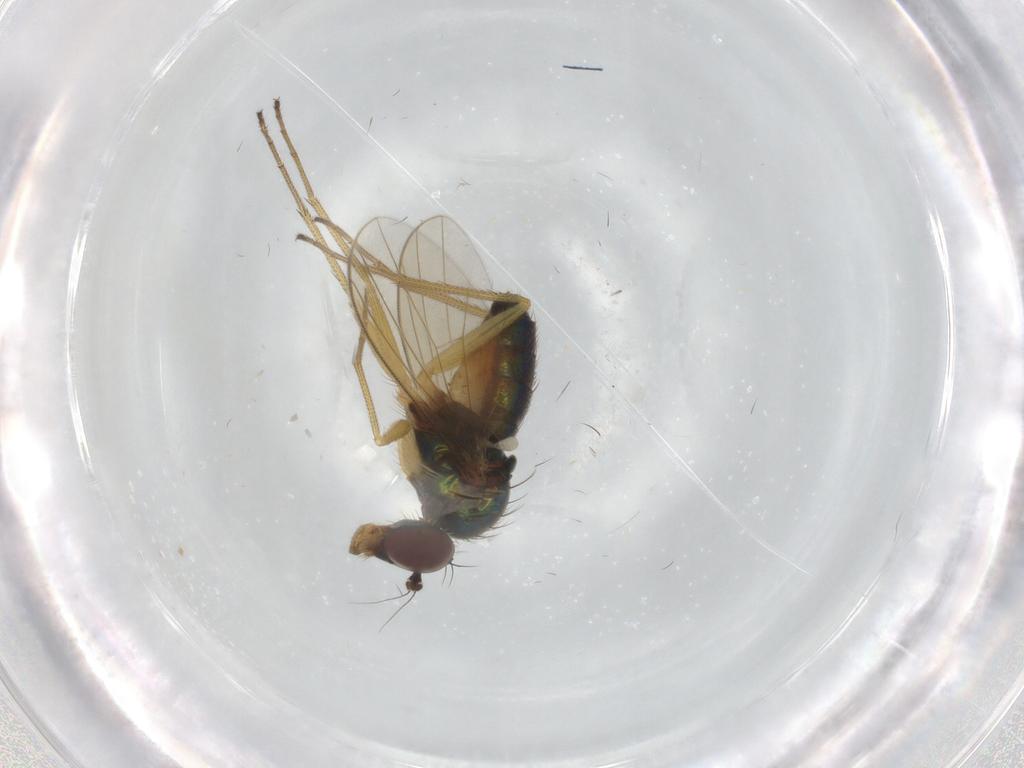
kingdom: Animalia
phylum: Arthropoda
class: Insecta
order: Diptera
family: Dolichopodidae
